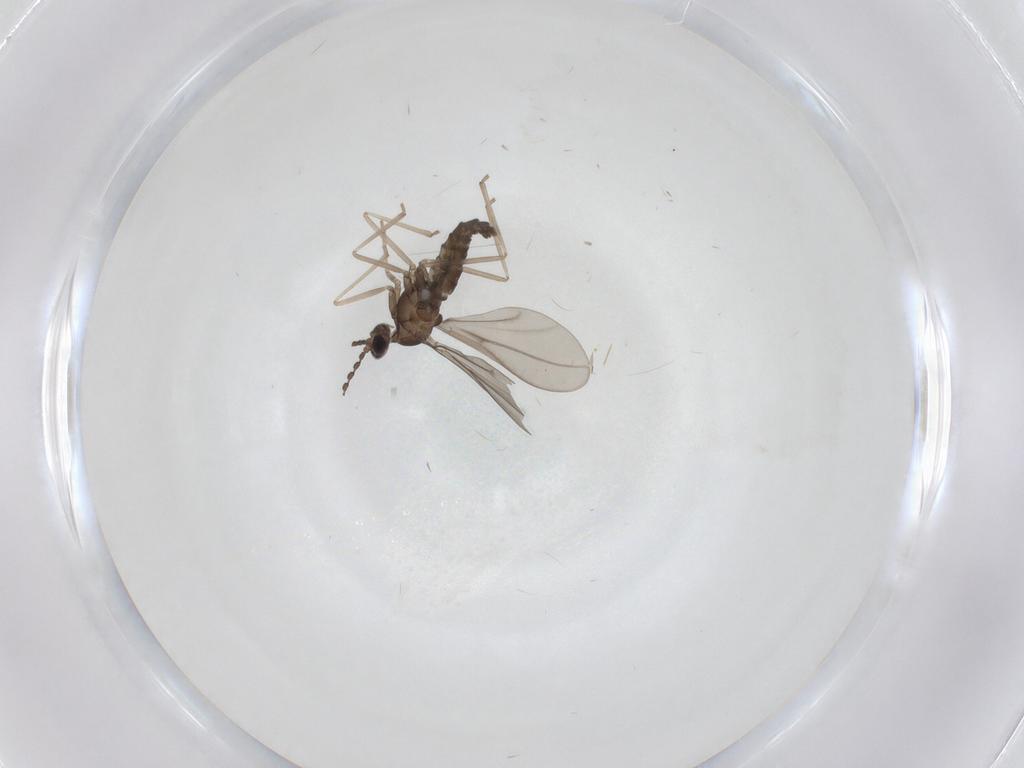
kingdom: Animalia
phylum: Arthropoda
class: Insecta
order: Diptera
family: Cecidomyiidae
